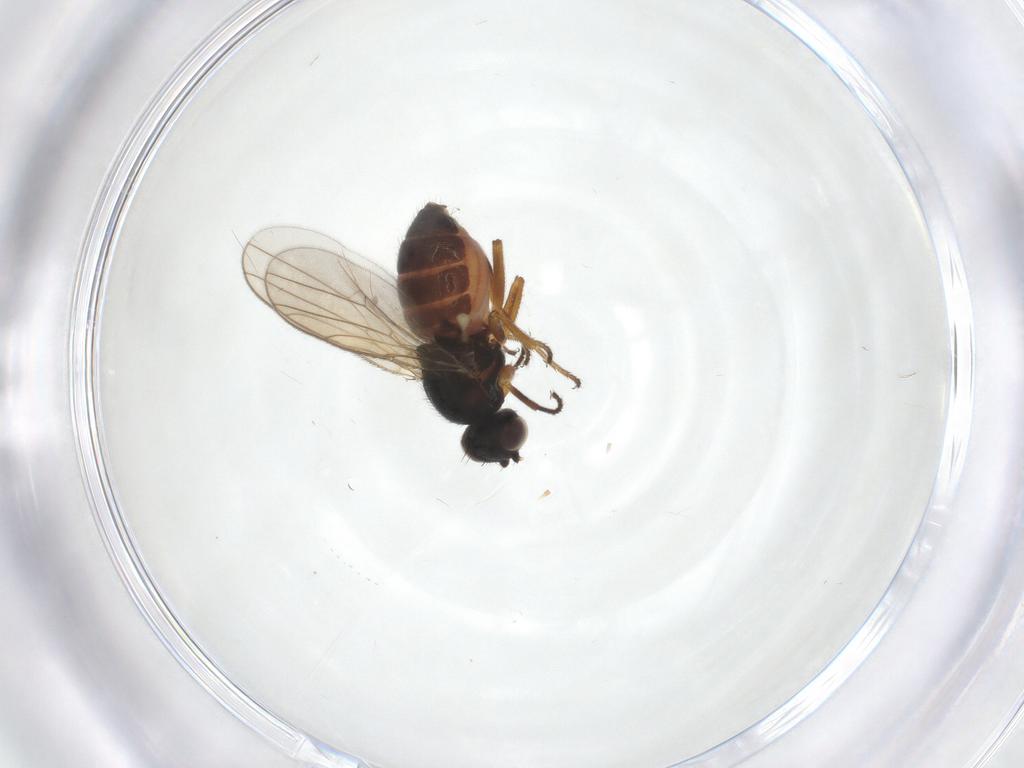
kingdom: Animalia
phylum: Arthropoda
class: Insecta
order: Diptera
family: Chloropidae
